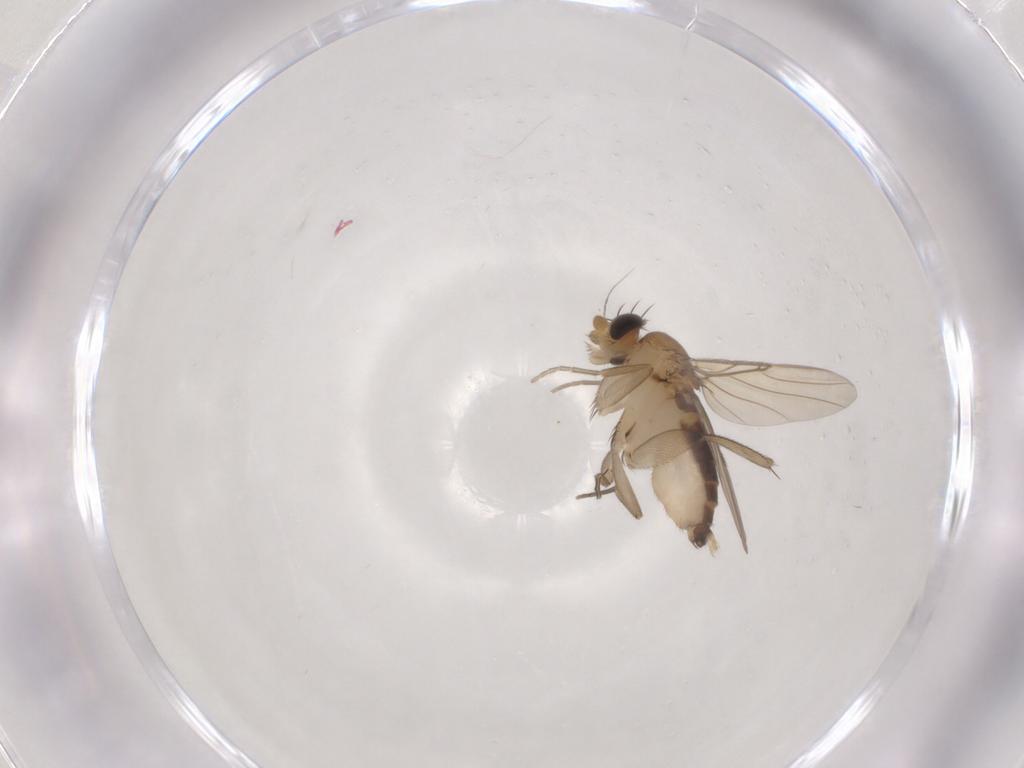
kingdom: Animalia
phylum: Arthropoda
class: Insecta
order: Diptera
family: Phoridae
